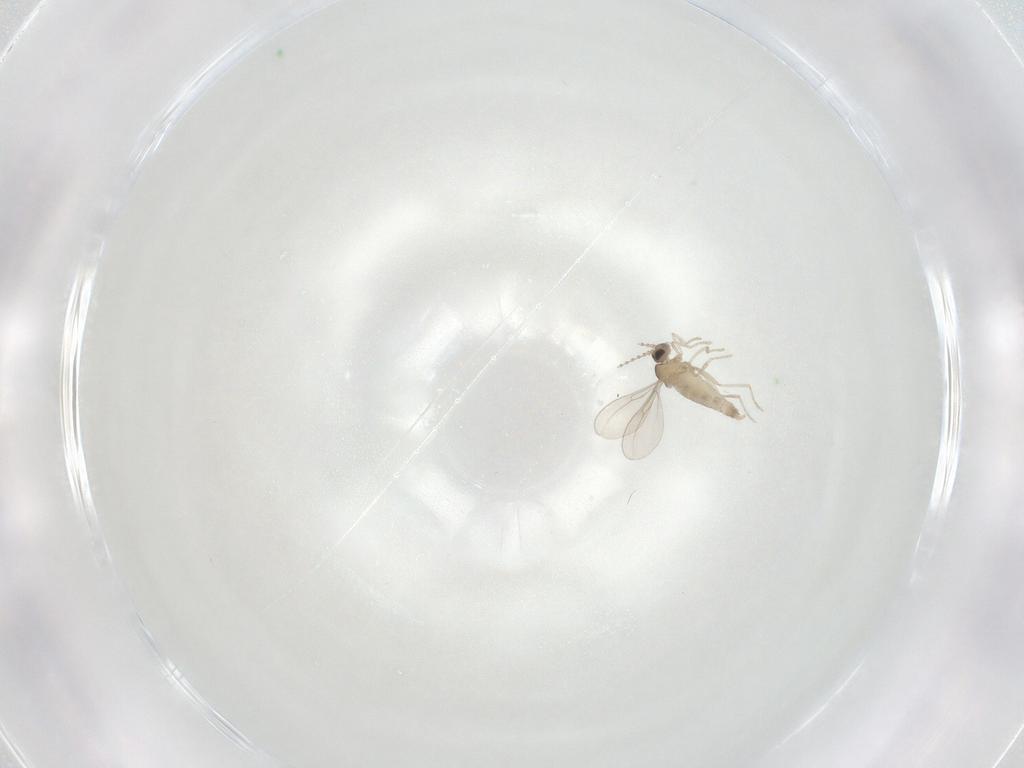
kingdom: Animalia
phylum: Arthropoda
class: Insecta
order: Diptera
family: Cecidomyiidae
